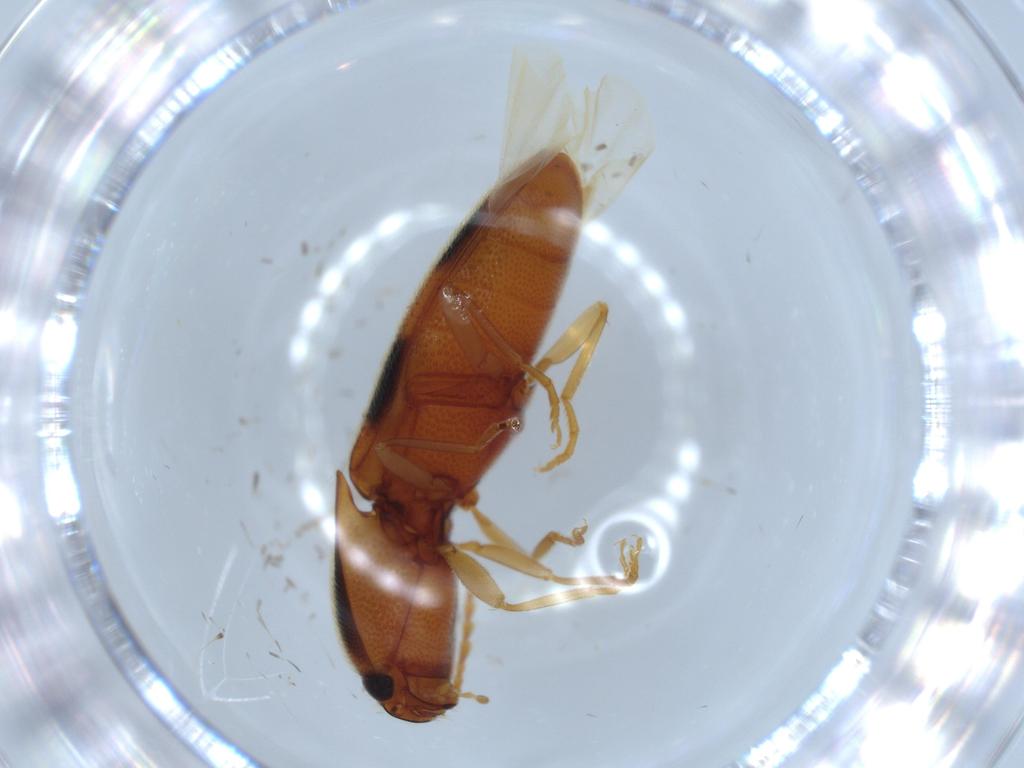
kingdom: Animalia
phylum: Arthropoda
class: Insecta
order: Coleoptera
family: Elateridae
